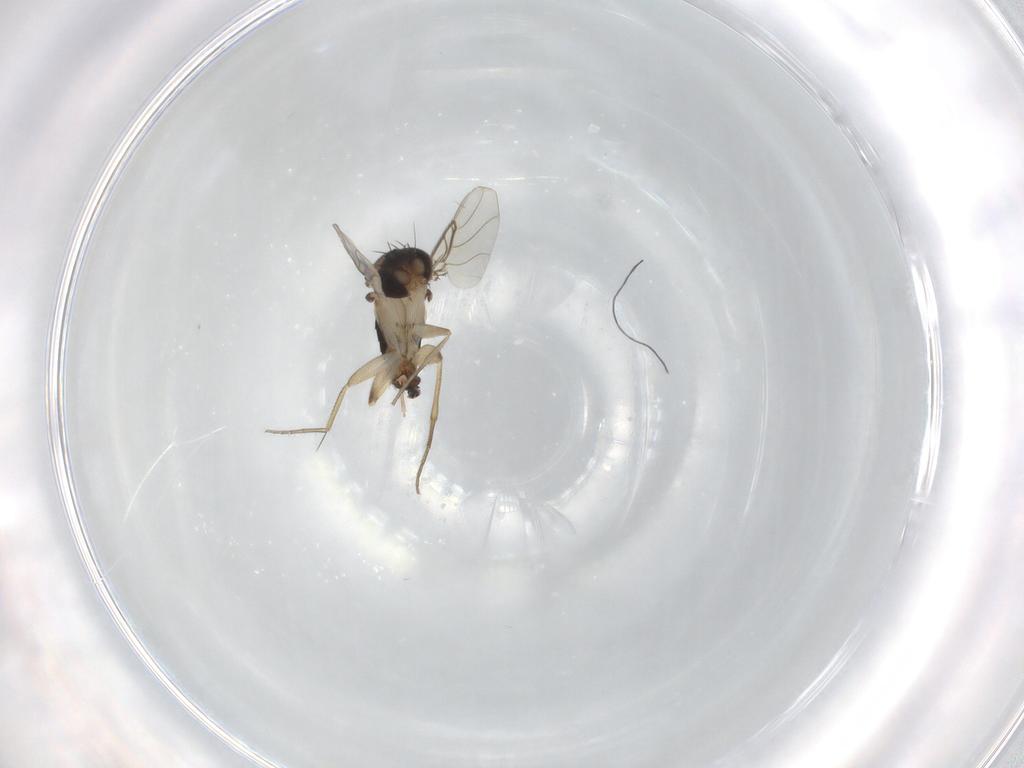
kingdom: Animalia
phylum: Arthropoda
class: Insecta
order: Diptera
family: Phoridae
